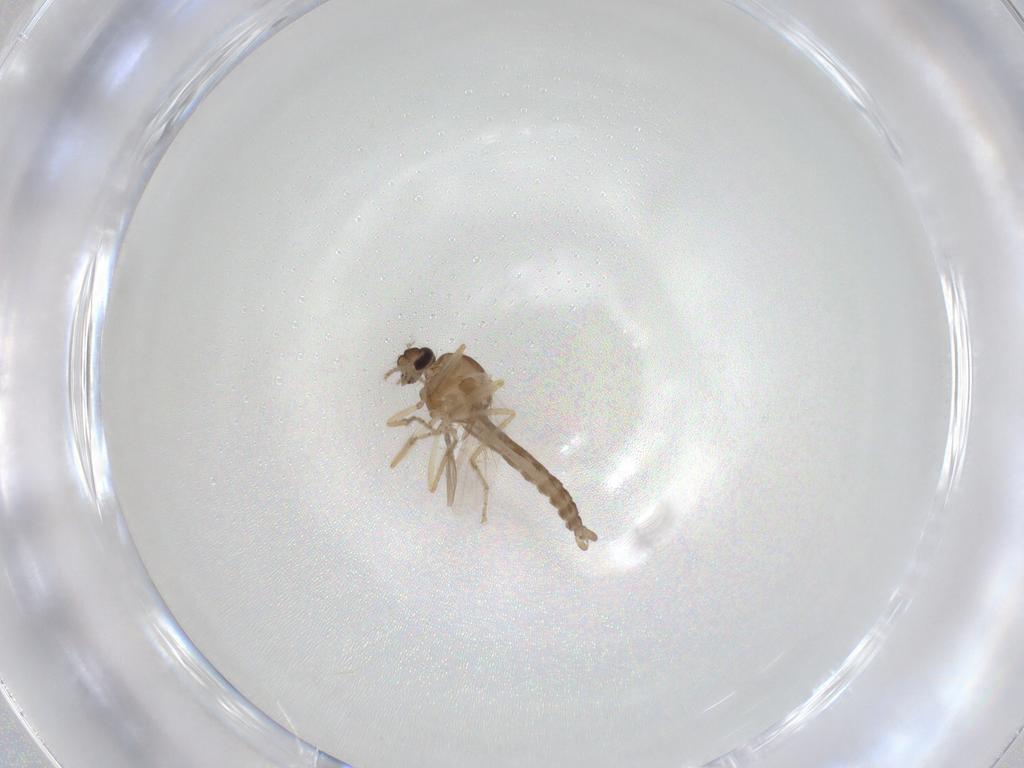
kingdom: Animalia
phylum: Arthropoda
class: Insecta
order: Diptera
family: Ceratopogonidae
